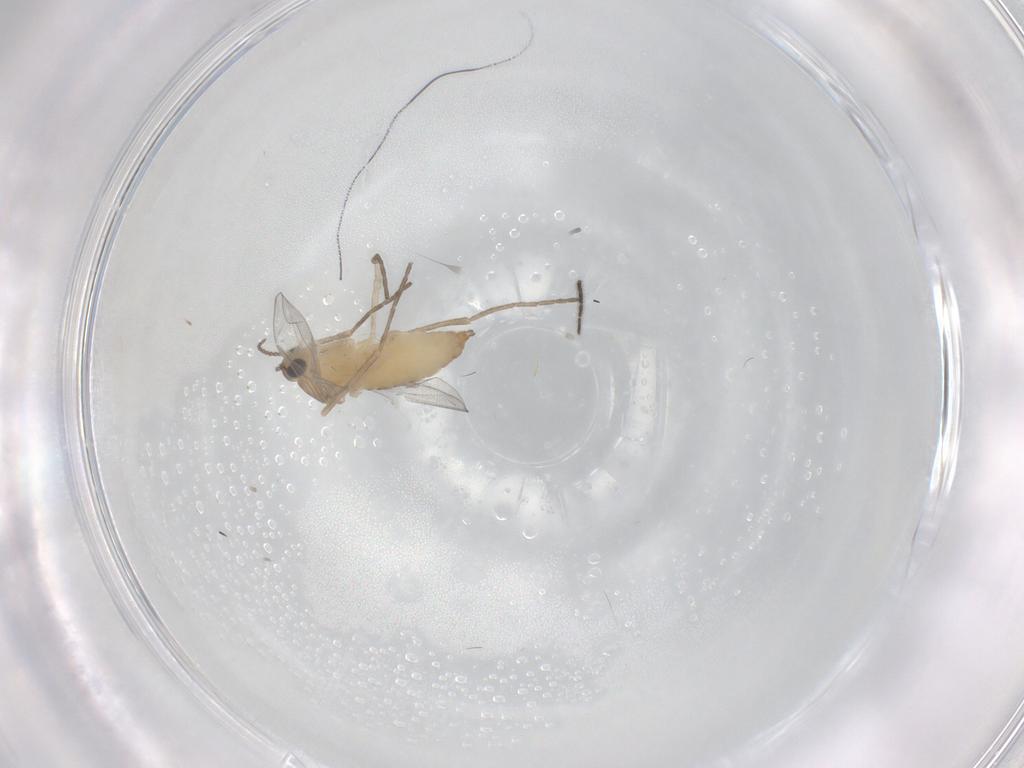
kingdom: Animalia
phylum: Arthropoda
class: Insecta
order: Diptera
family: Cecidomyiidae
